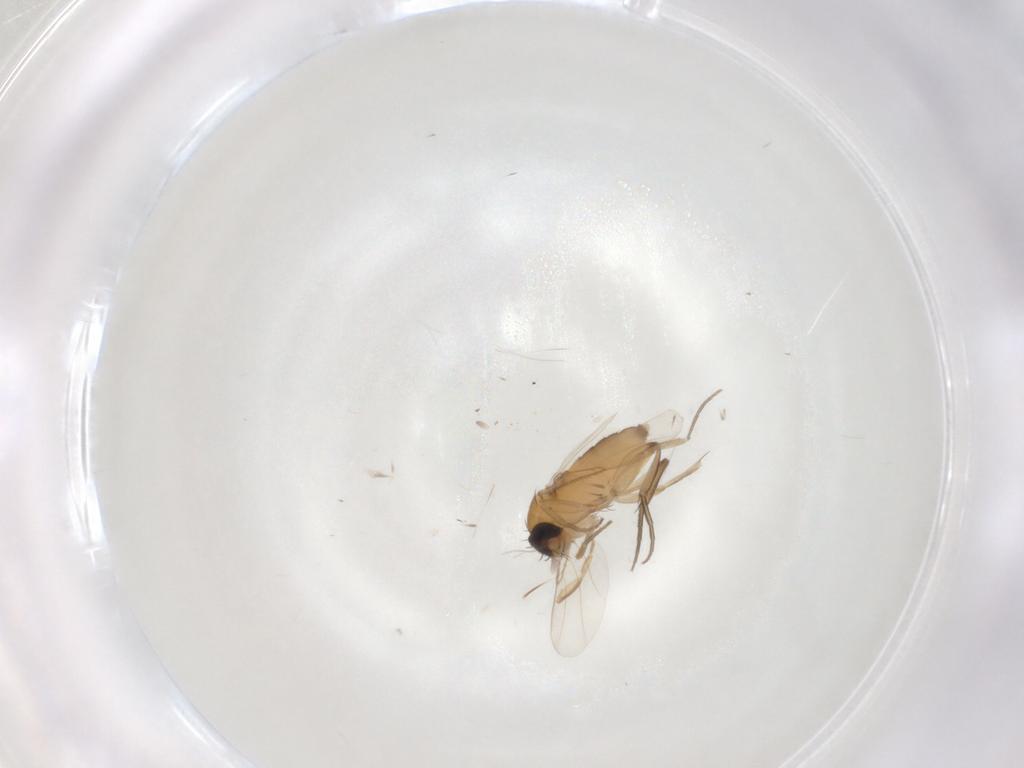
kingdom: Animalia
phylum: Arthropoda
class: Insecta
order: Diptera
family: Phoridae
